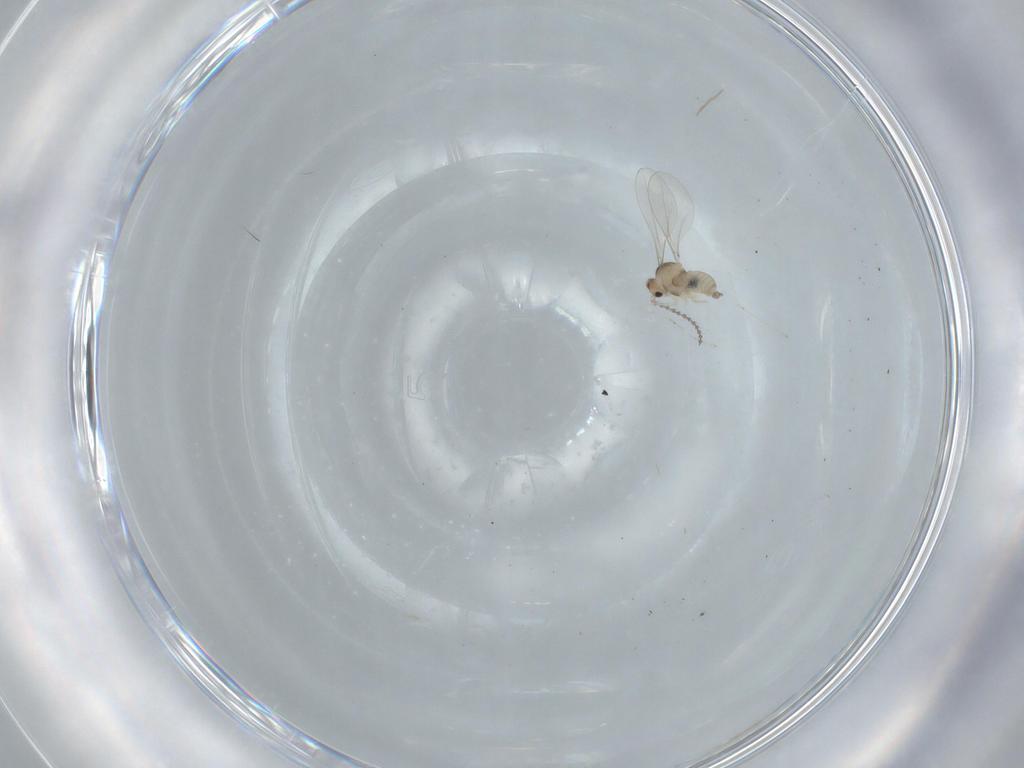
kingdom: Animalia
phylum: Arthropoda
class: Insecta
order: Diptera
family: Cecidomyiidae
